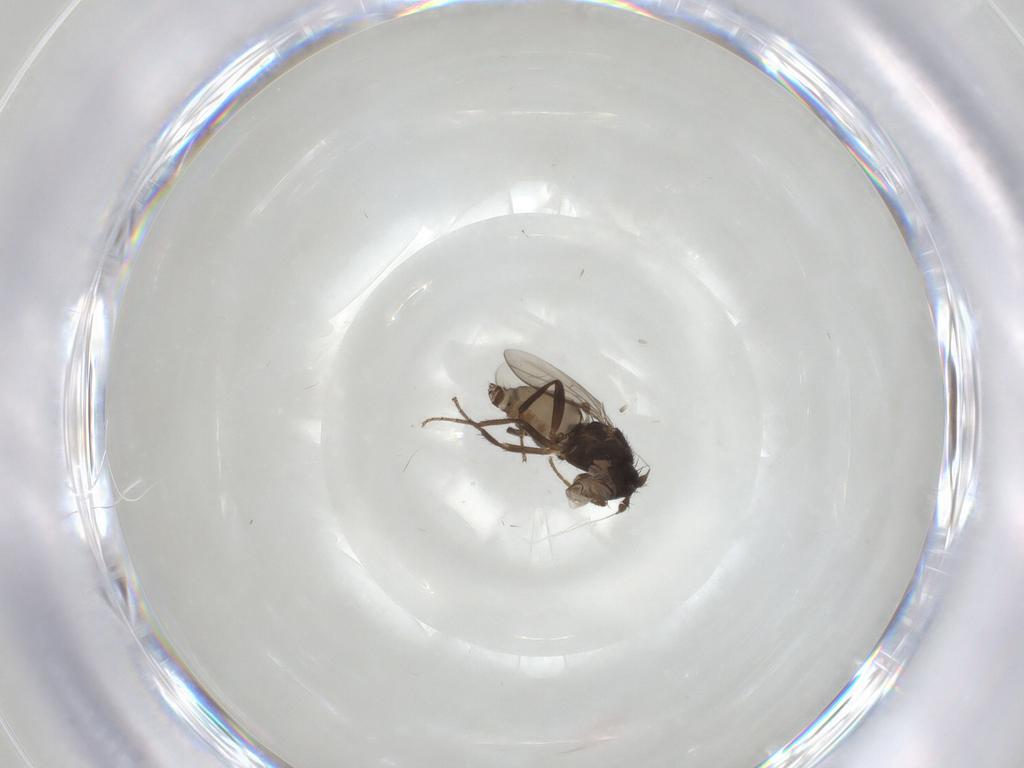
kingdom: Animalia
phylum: Arthropoda
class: Insecta
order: Diptera
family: Sphaeroceridae
